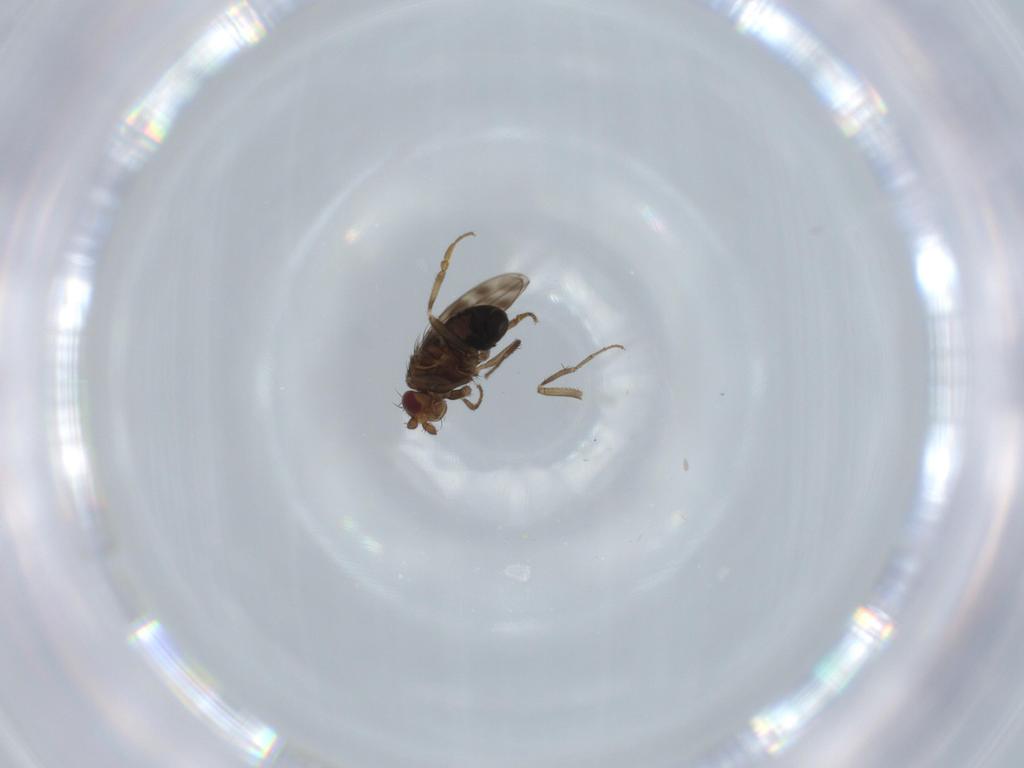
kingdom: Animalia
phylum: Arthropoda
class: Insecta
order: Diptera
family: Sphaeroceridae
